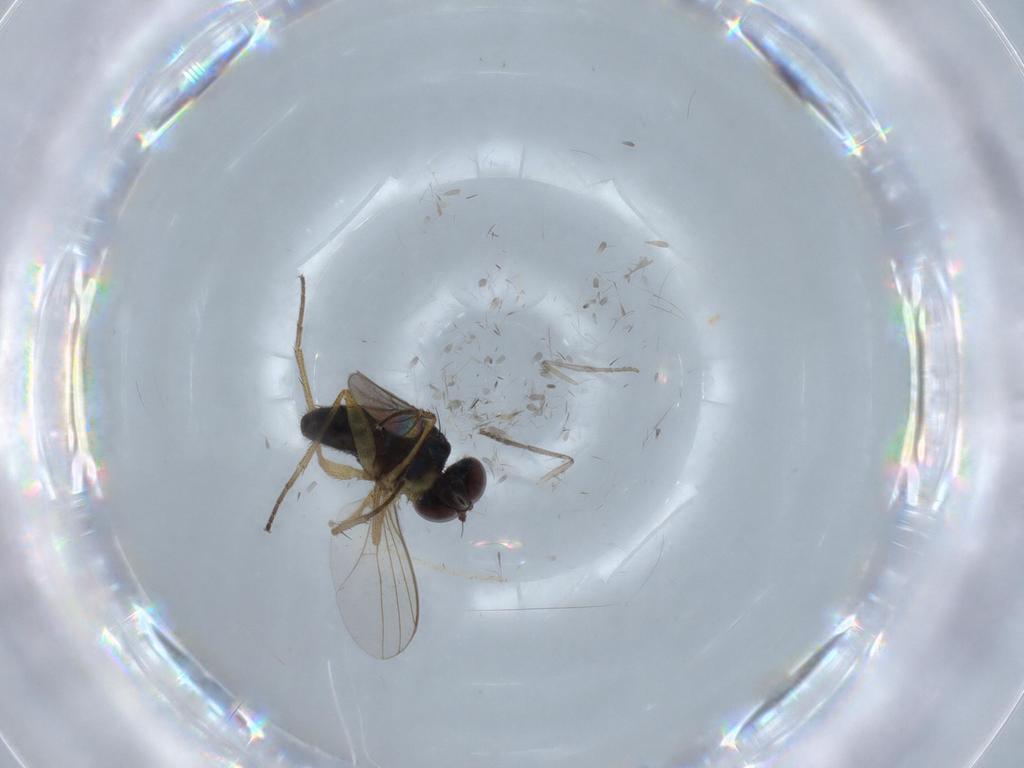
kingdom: Animalia
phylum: Arthropoda
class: Insecta
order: Diptera
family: Psychodidae
